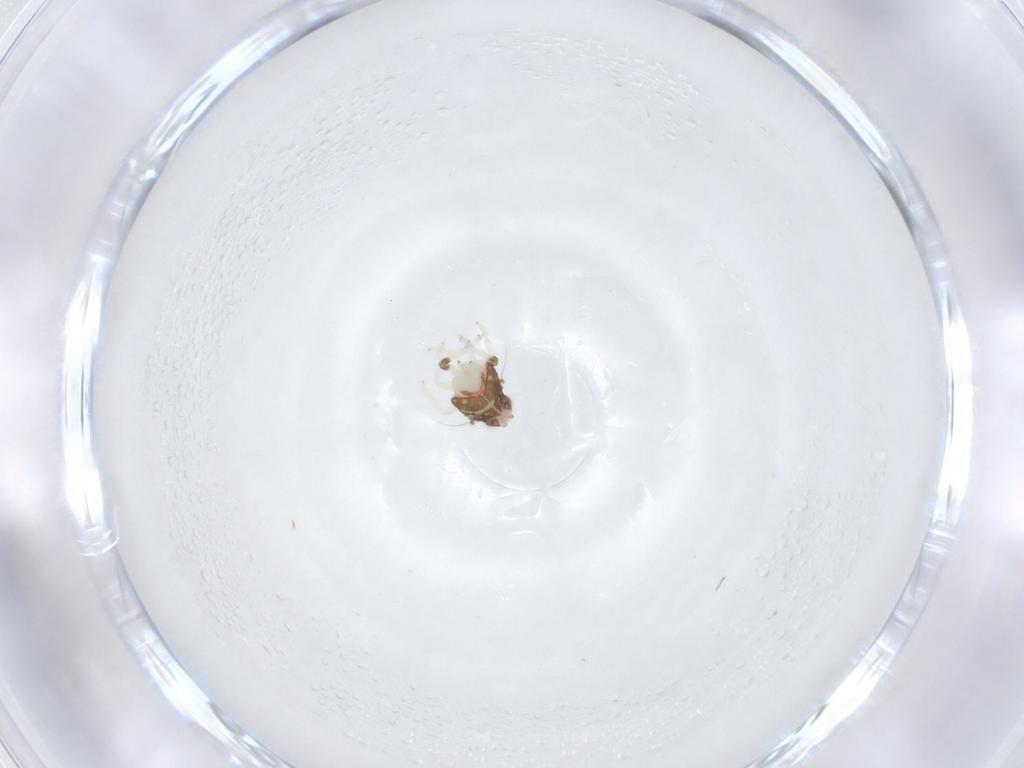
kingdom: Animalia
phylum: Arthropoda
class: Insecta
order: Hemiptera
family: Nogodinidae
